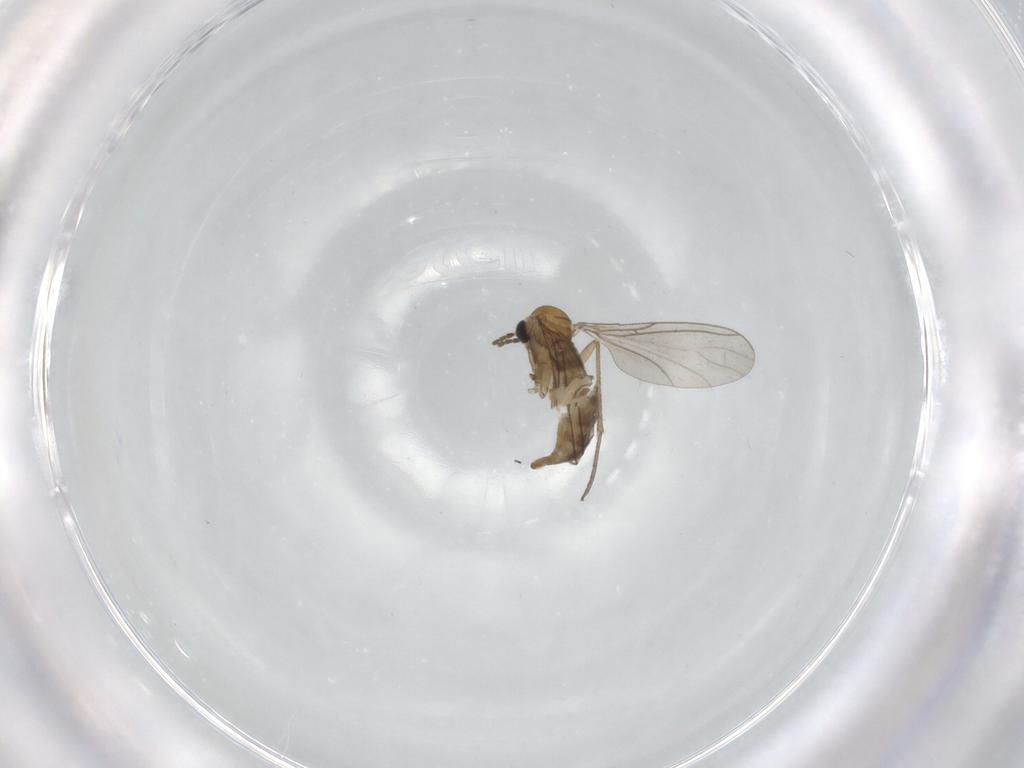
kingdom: Animalia
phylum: Arthropoda
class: Insecta
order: Diptera
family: Sciaridae
